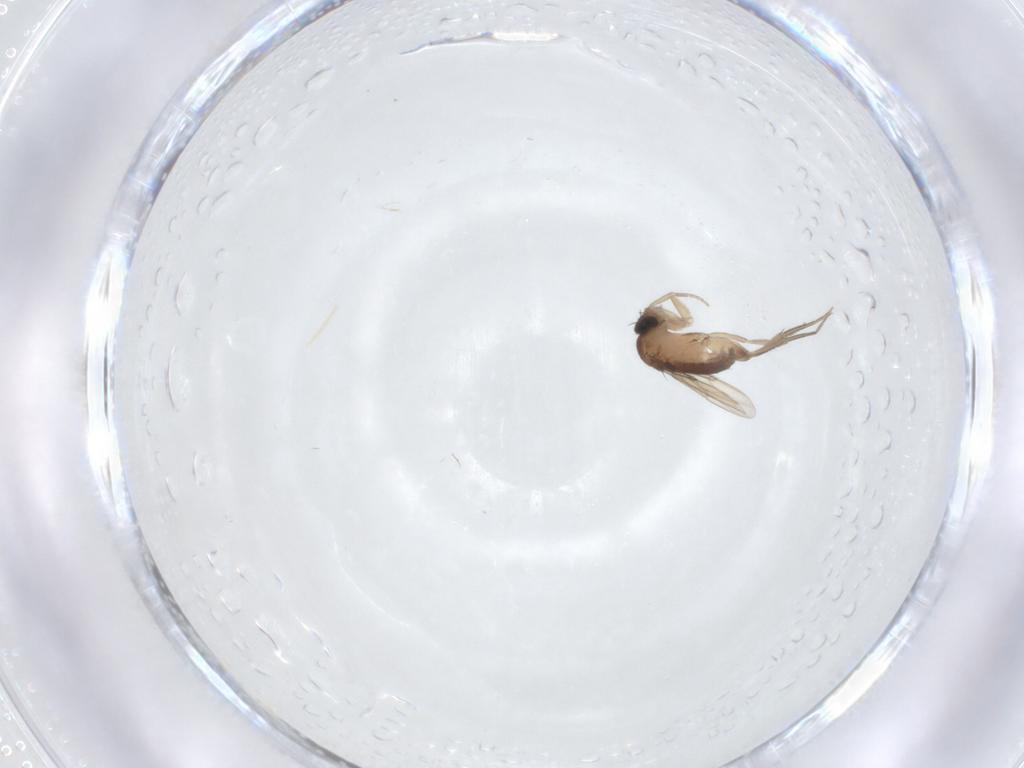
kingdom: Animalia
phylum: Arthropoda
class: Insecta
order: Diptera
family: Phoridae
